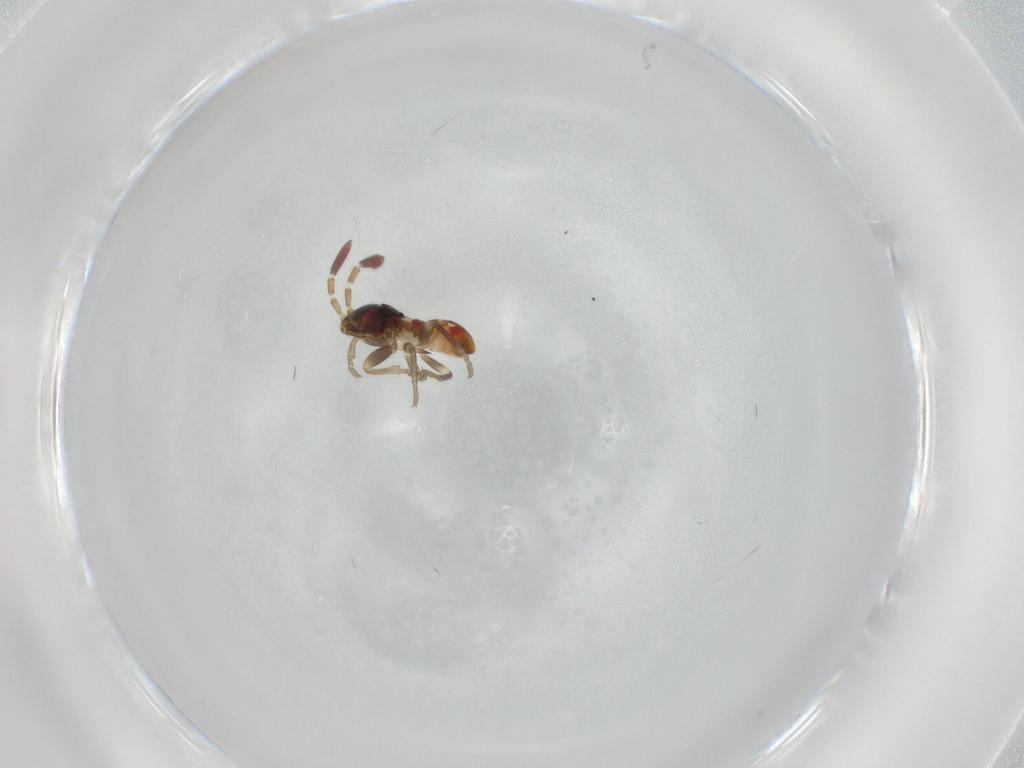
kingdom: Animalia
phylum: Arthropoda
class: Insecta
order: Hemiptera
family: Rhyparochromidae
